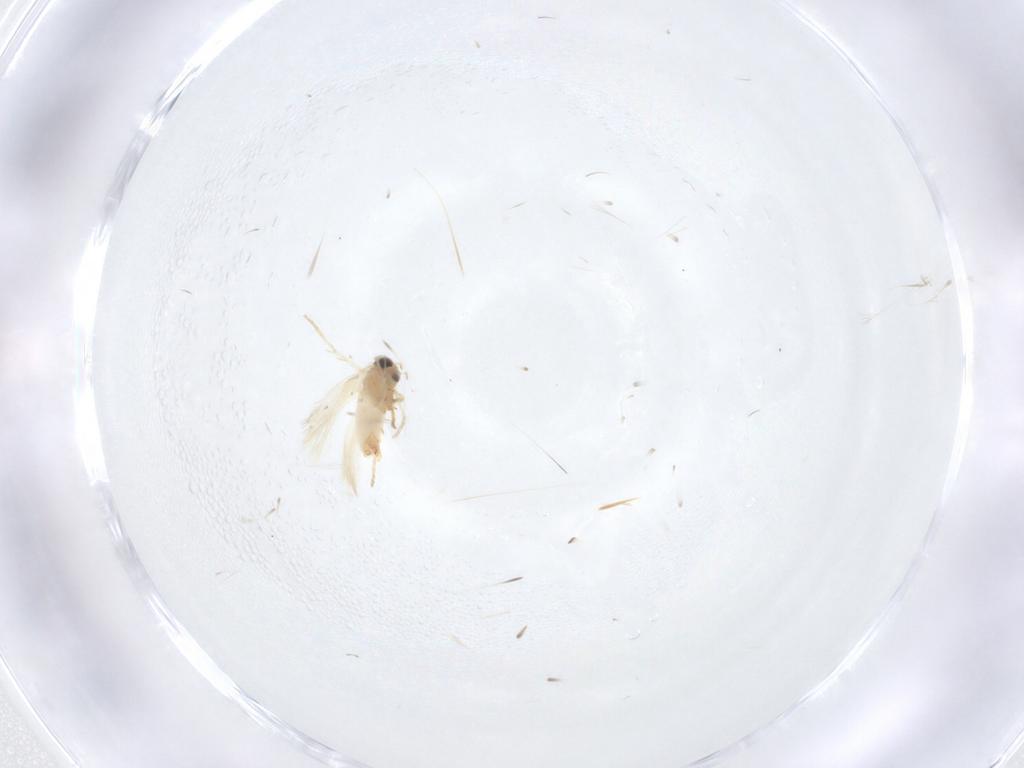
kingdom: Animalia
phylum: Arthropoda
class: Insecta
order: Lepidoptera
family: Crambidae
